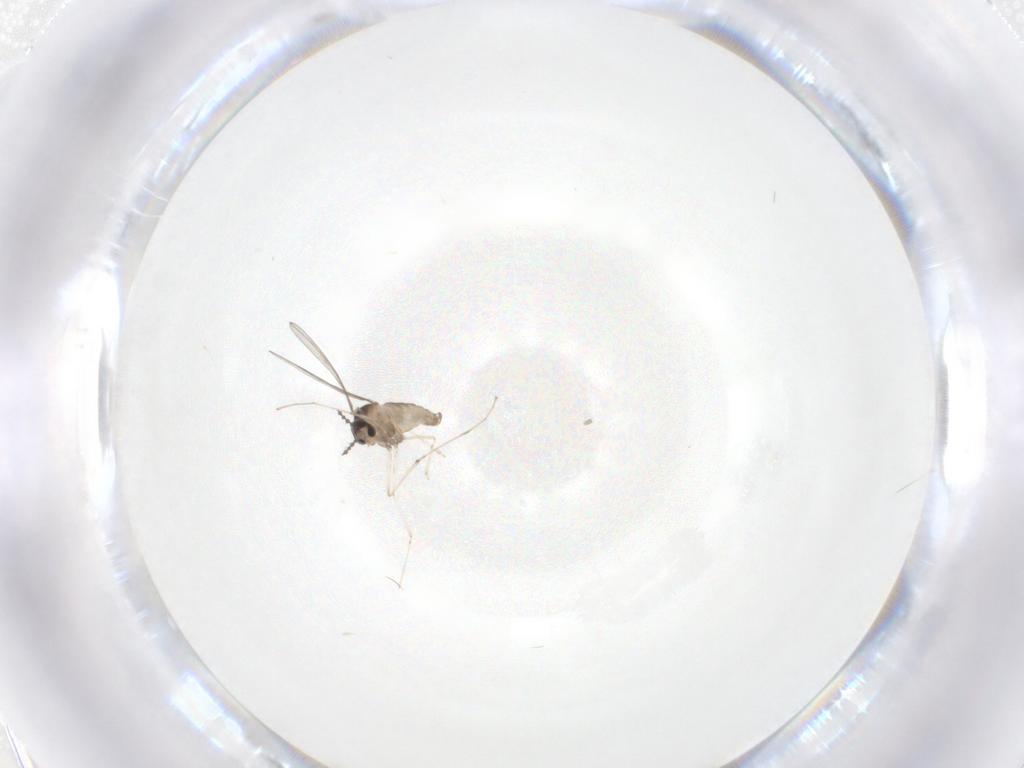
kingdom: Animalia
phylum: Arthropoda
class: Insecta
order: Diptera
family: Cecidomyiidae
